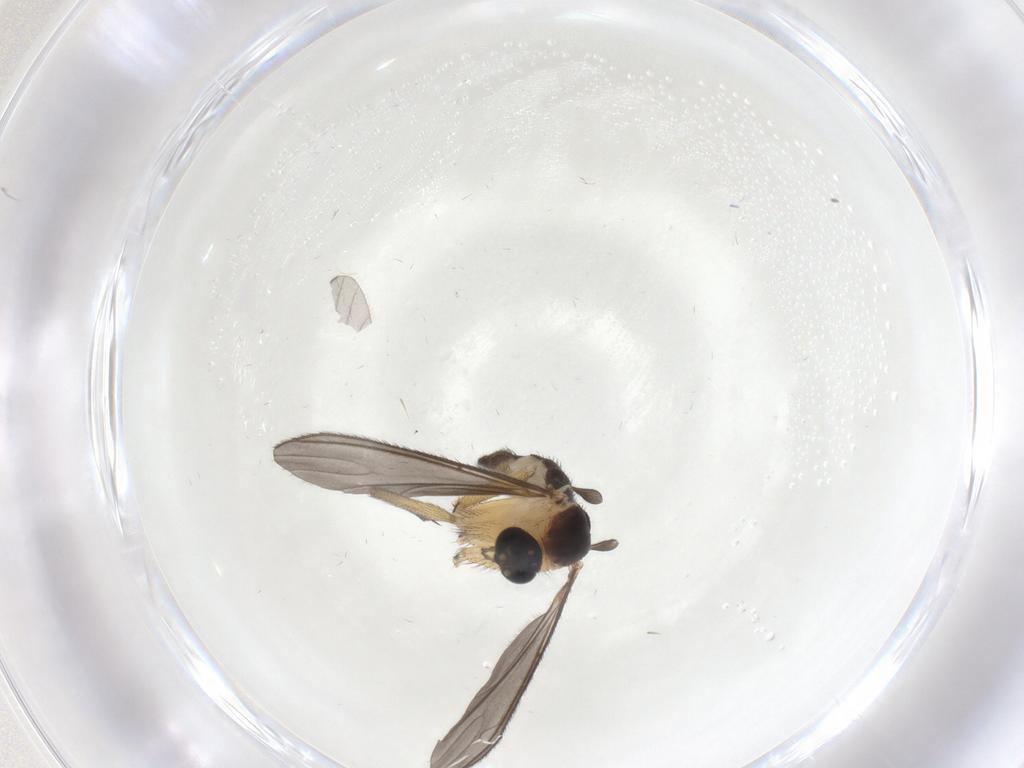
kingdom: Animalia
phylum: Arthropoda
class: Insecta
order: Diptera
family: Sciaridae
